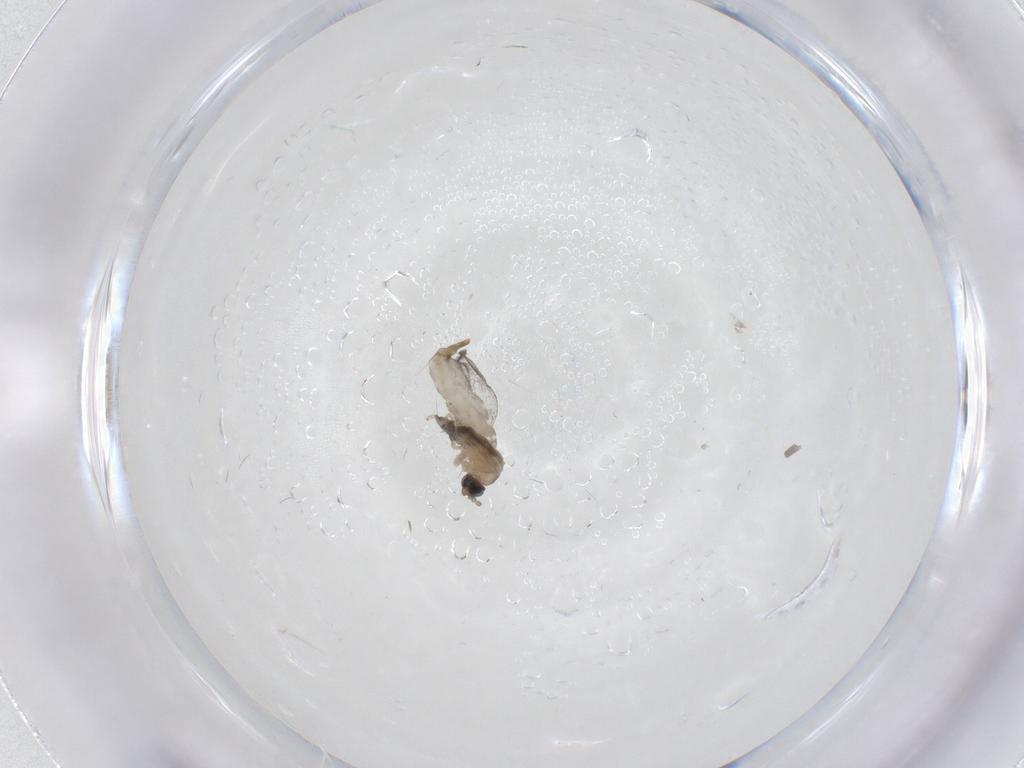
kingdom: Animalia
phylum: Arthropoda
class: Insecta
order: Diptera
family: Cecidomyiidae
